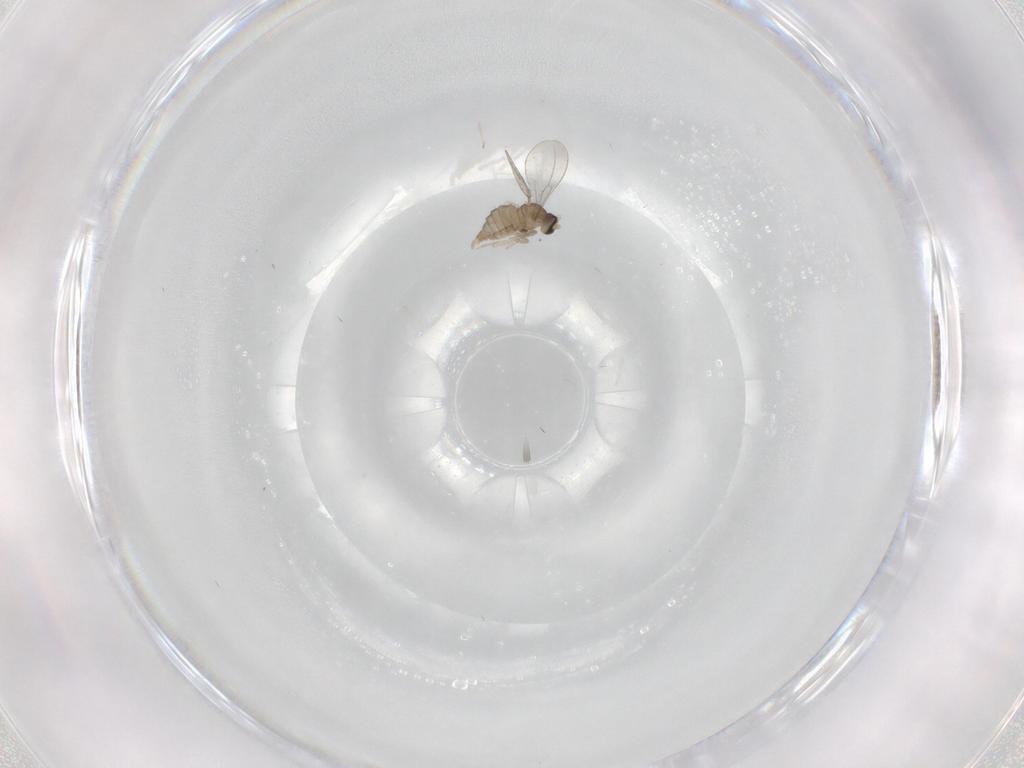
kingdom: Animalia
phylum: Arthropoda
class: Insecta
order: Diptera
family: Cecidomyiidae
